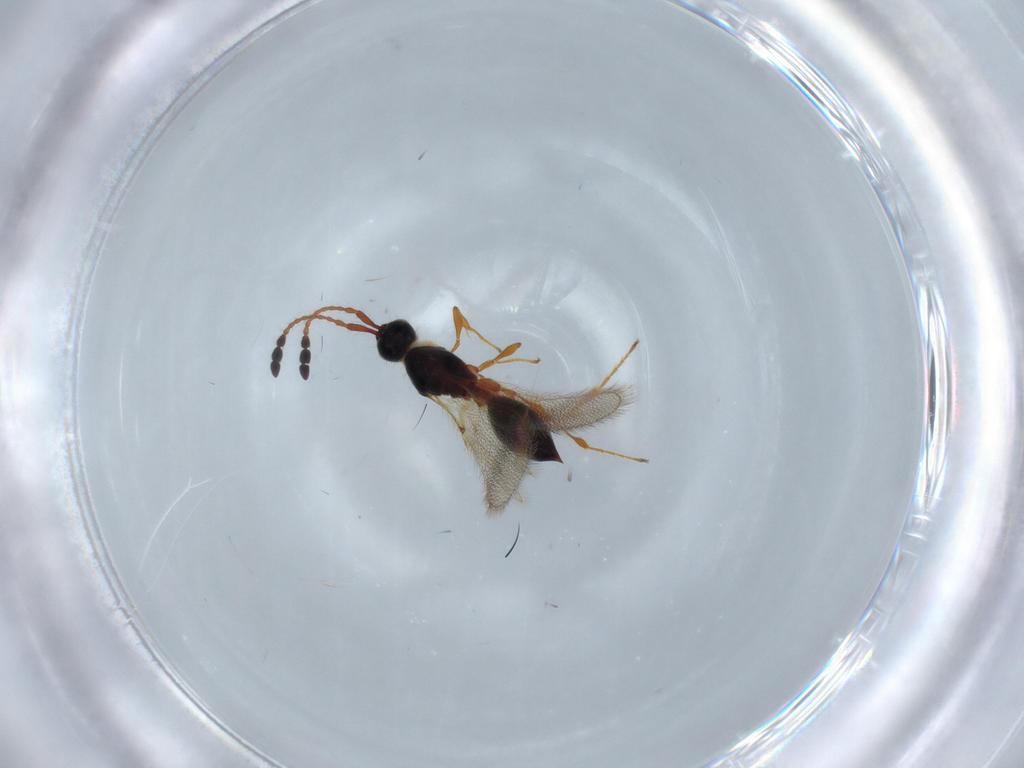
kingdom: Animalia
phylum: Arthropoda
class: Insecta
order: Hymenoptera
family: Diapriidae
